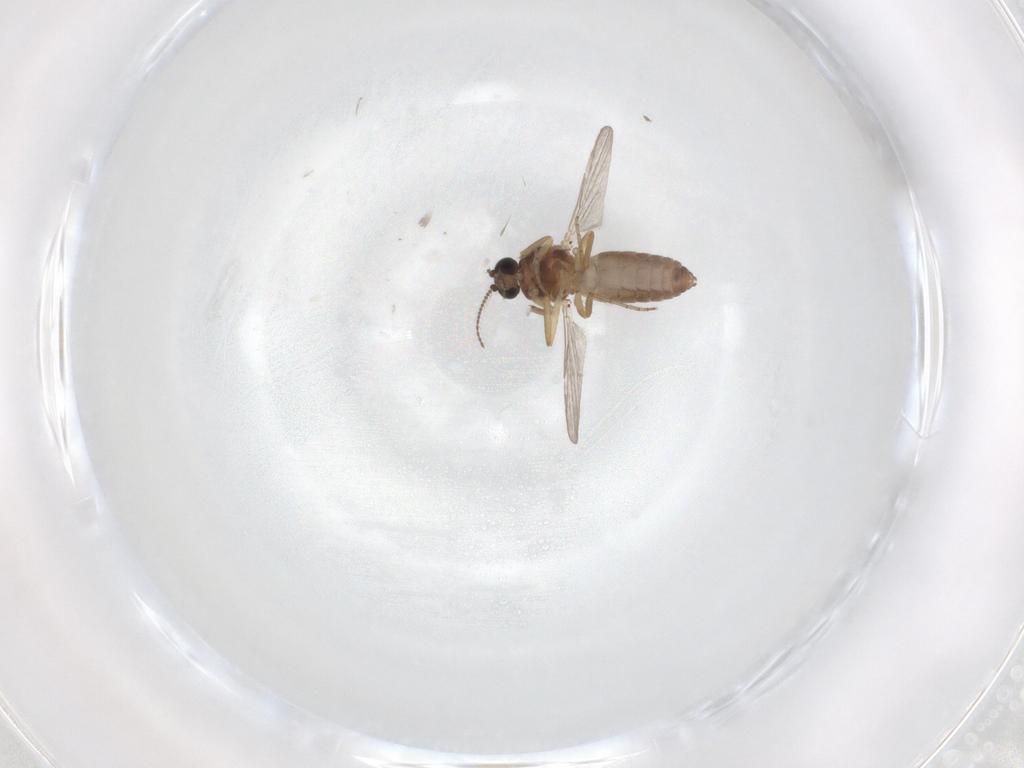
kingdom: Animalia
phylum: Arthropoda
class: Insecta
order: Diptera
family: Ceratopogonidae
